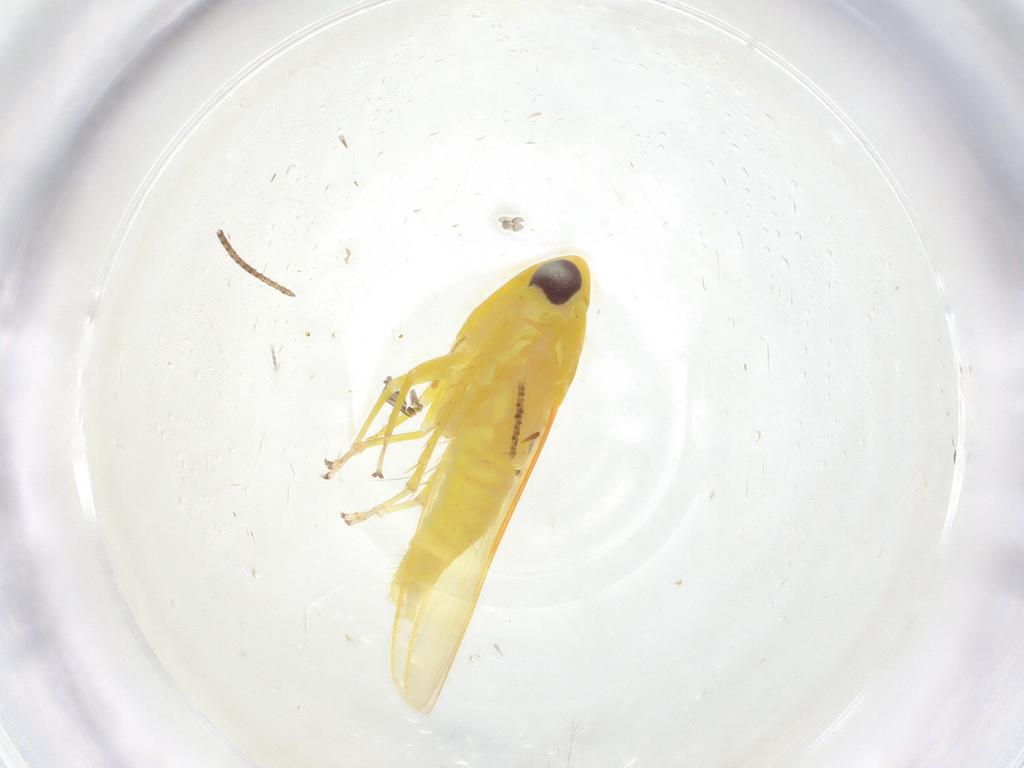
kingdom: Animalia
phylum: Arthropoda
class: Insecta
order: Hemiptera
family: Cicadellidae
